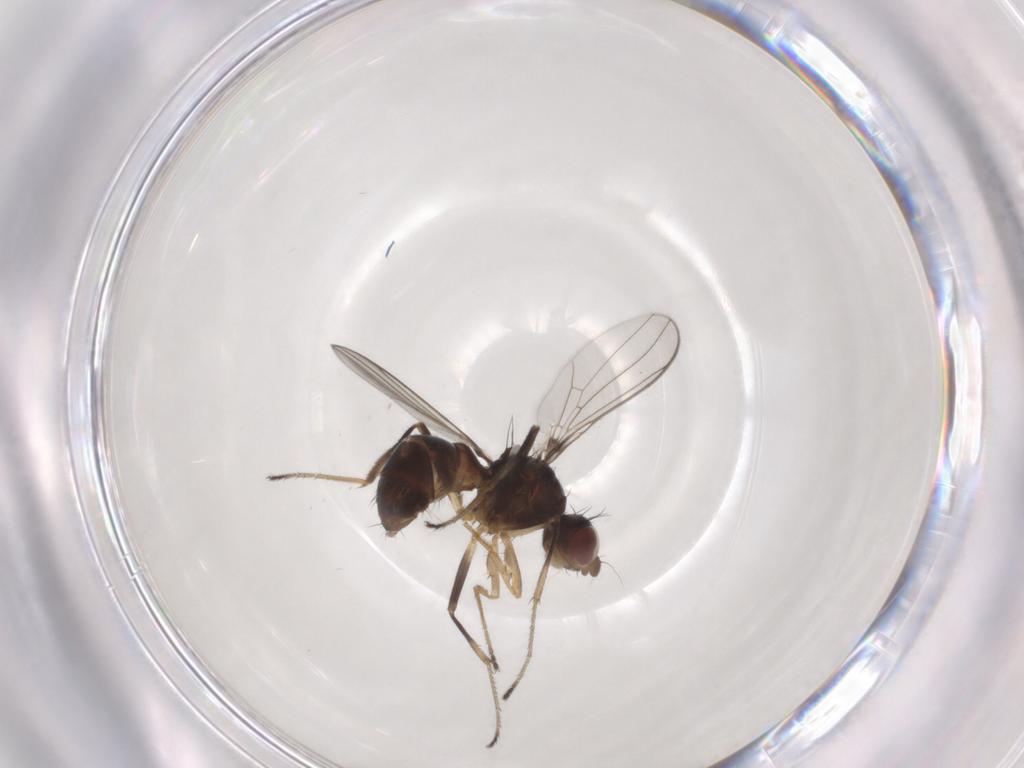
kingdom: Animalia
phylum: Arthropoda
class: Insecta
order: Diptera
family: Sepsidae
